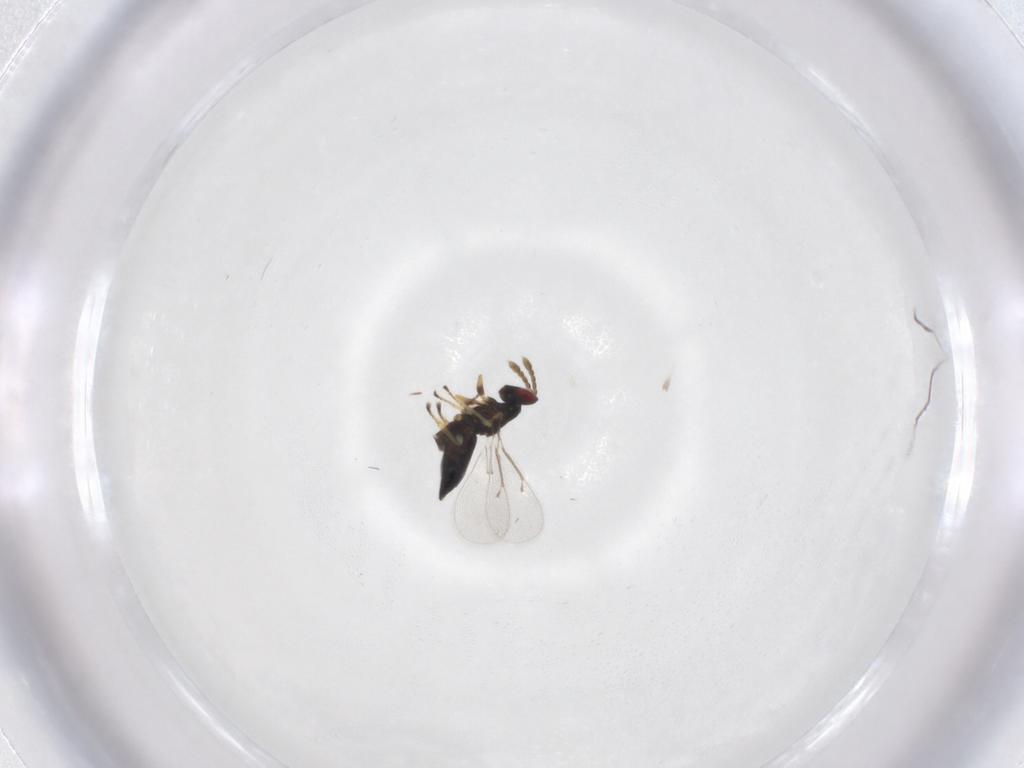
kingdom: Animalia
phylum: Arthropoda
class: Insecta
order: Hymenoptera
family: Eulophidae
